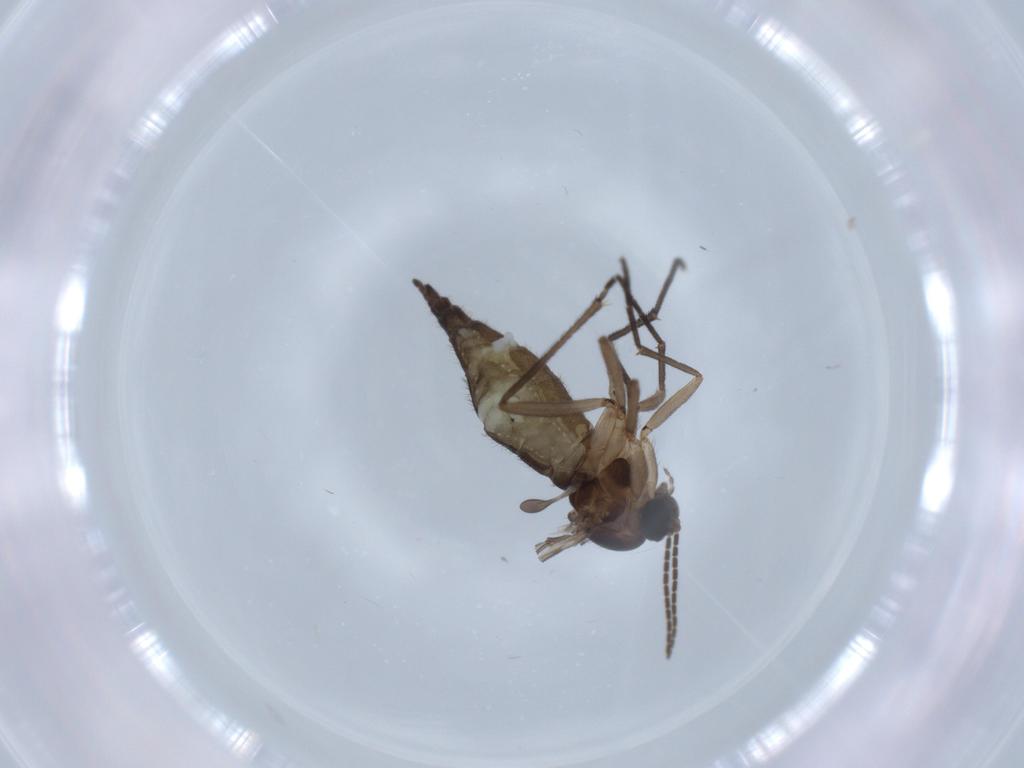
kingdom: Animalia
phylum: Arthropoda
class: Insecta
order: Diptera
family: Sciaridae
